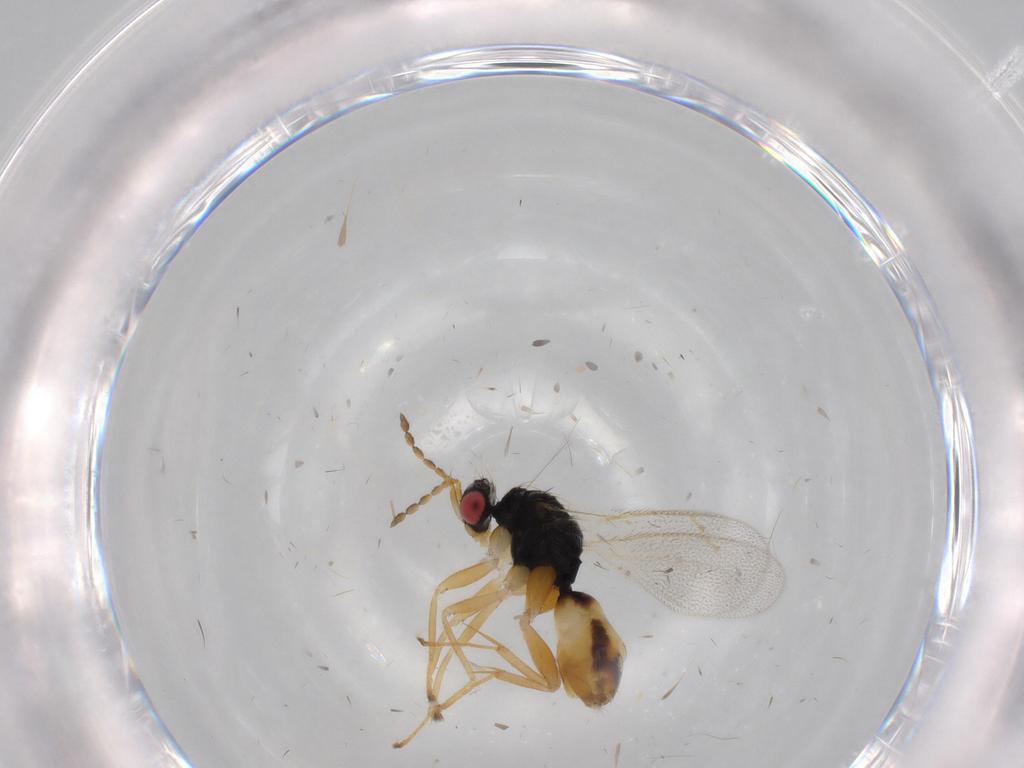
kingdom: Animalia
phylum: Arthropoda
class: Insecta
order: Hymenoptera
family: Eulophidae
